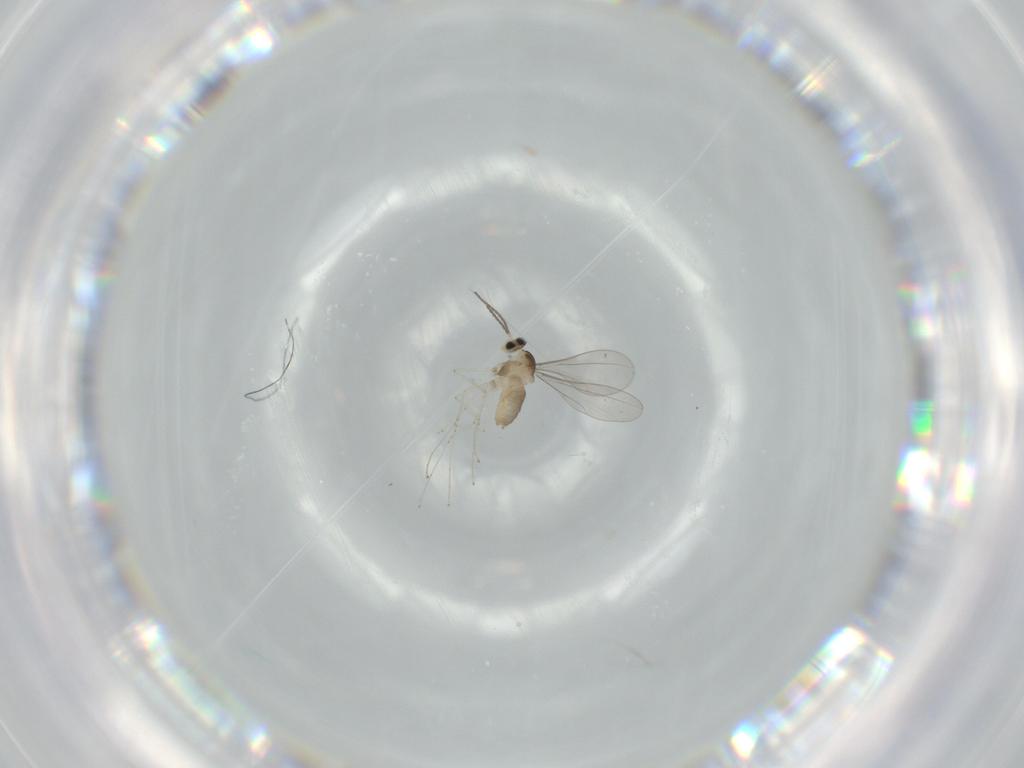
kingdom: Animalia
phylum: Arthropoda
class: Insecta
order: Diptera
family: Cecidomyiidae
